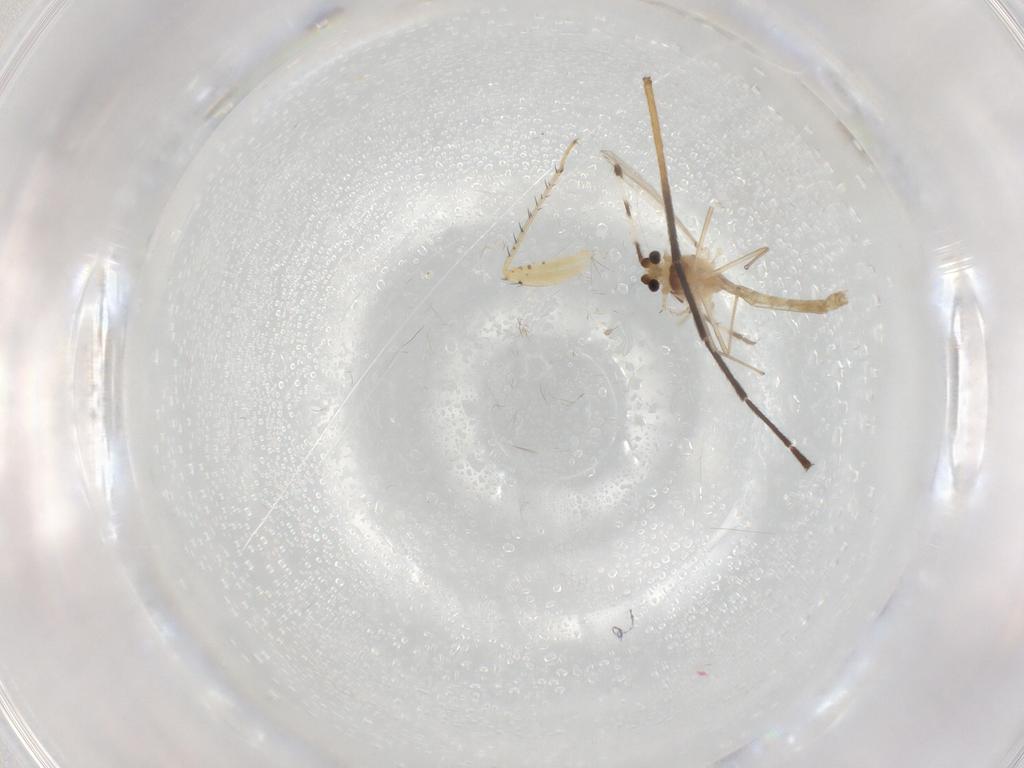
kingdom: Animalia
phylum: Arthropoda
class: Insecta
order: Diptera
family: Chironomidae
